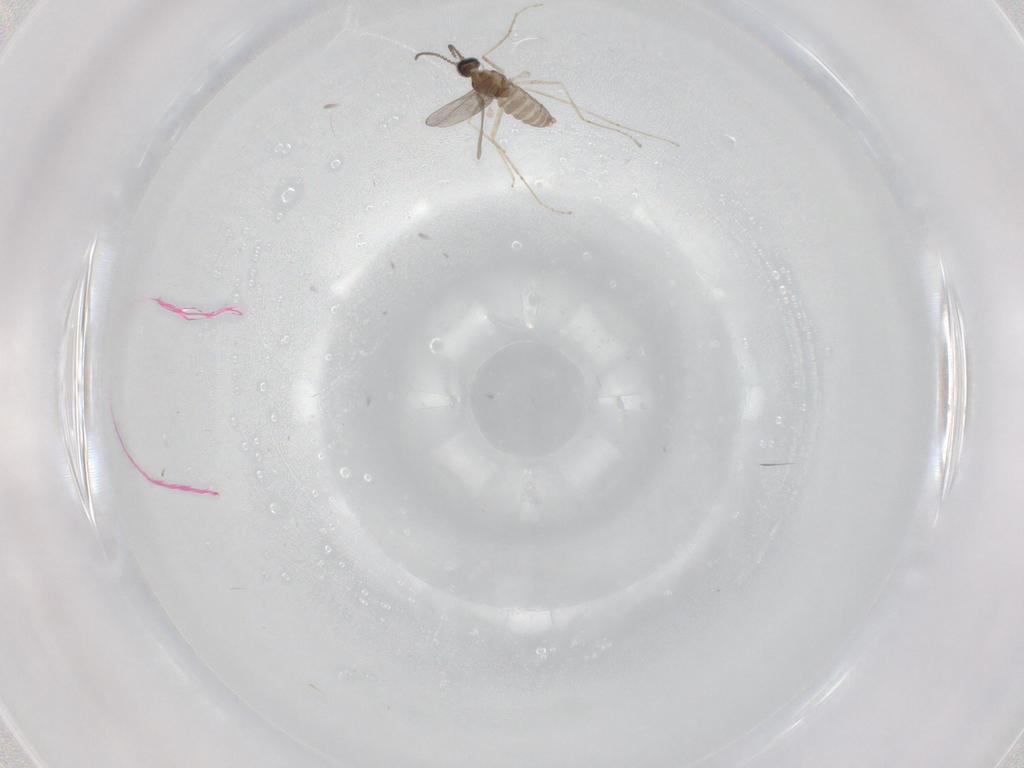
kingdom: Animalia
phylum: Arthropoda
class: Insecta
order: Diptera
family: Cecidomyiidae
